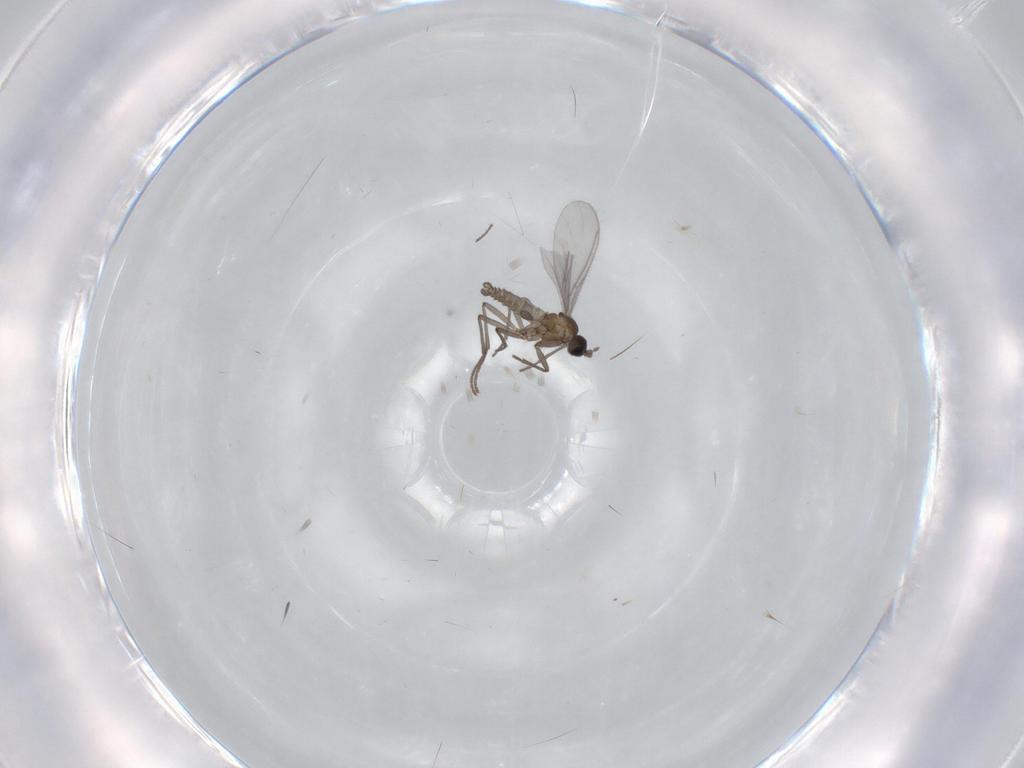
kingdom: Animalia
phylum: Arthropoda
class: Insecta
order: Diptera
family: Sciaridae
